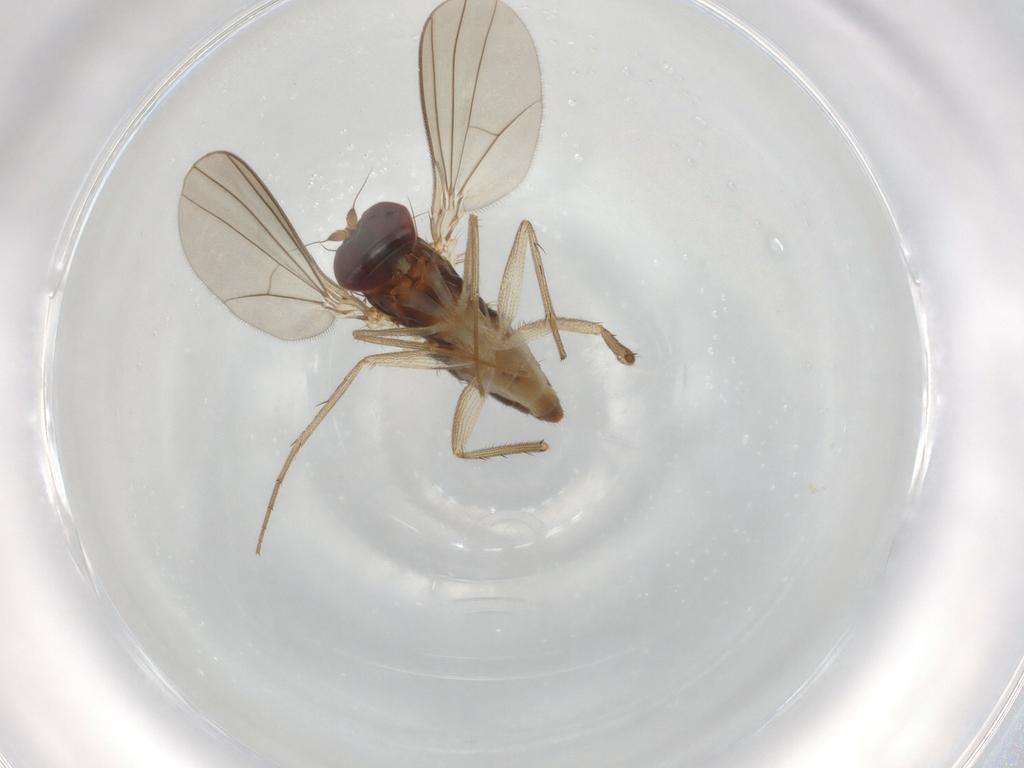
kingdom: Animalia
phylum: Arthropoda
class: Insecta
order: Diptera
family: Dolichopodidae
